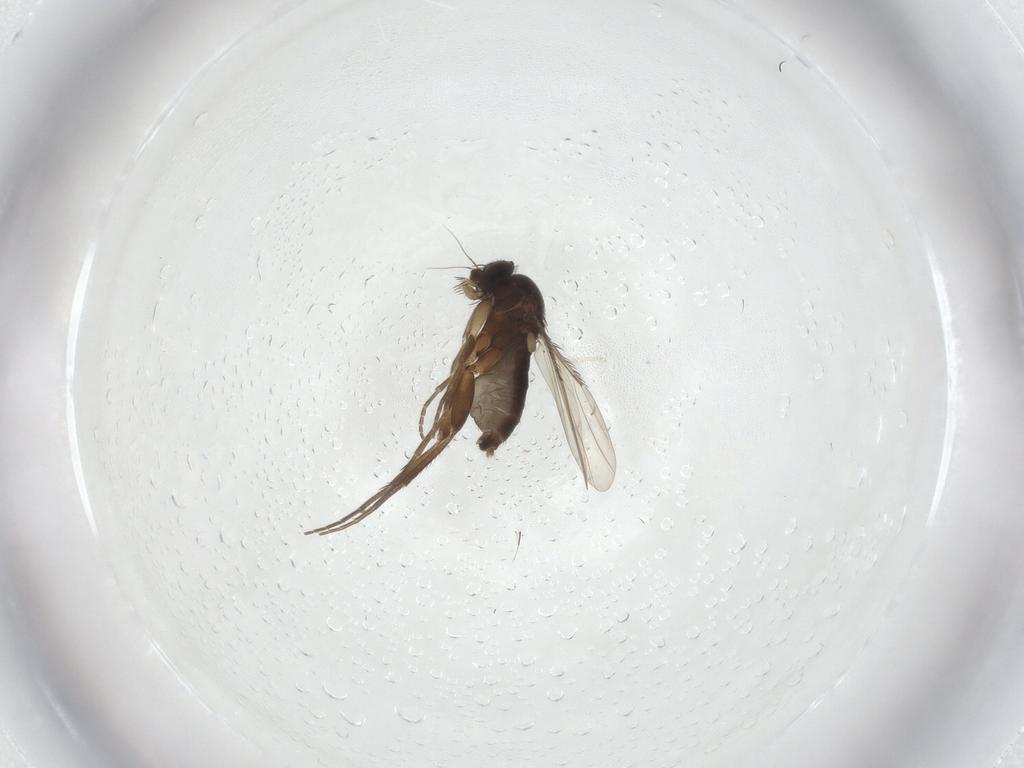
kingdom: Animalia
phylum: Arthropoda
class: Insecta
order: Diptera
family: Phoridae
